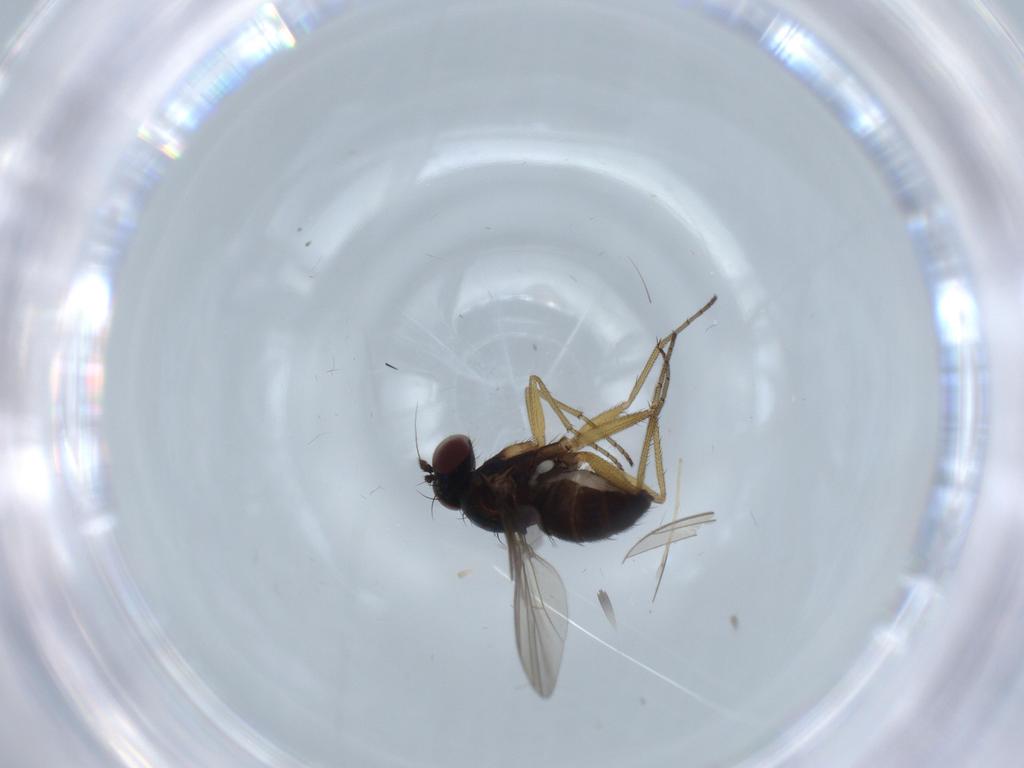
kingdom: Animalia
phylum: Arthropoda
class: Insecta
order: Diptera
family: Dolichopodidae
